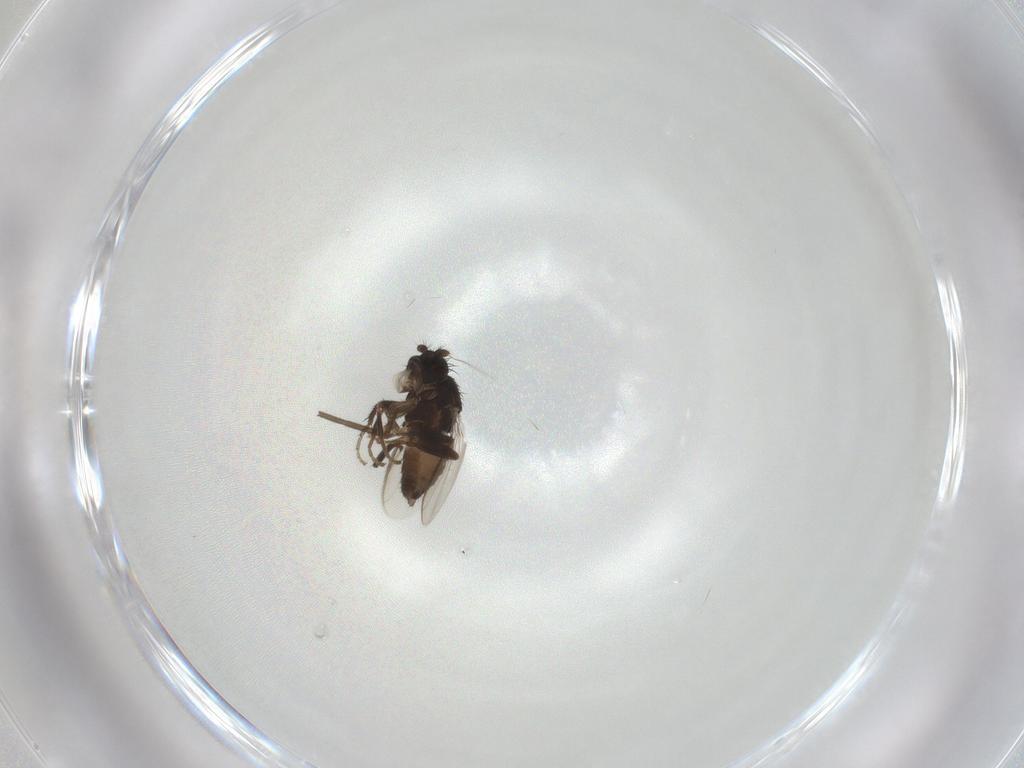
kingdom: Animalia
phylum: Arthropoda
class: Insecta
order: Diptera
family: Sphaeroceridae
